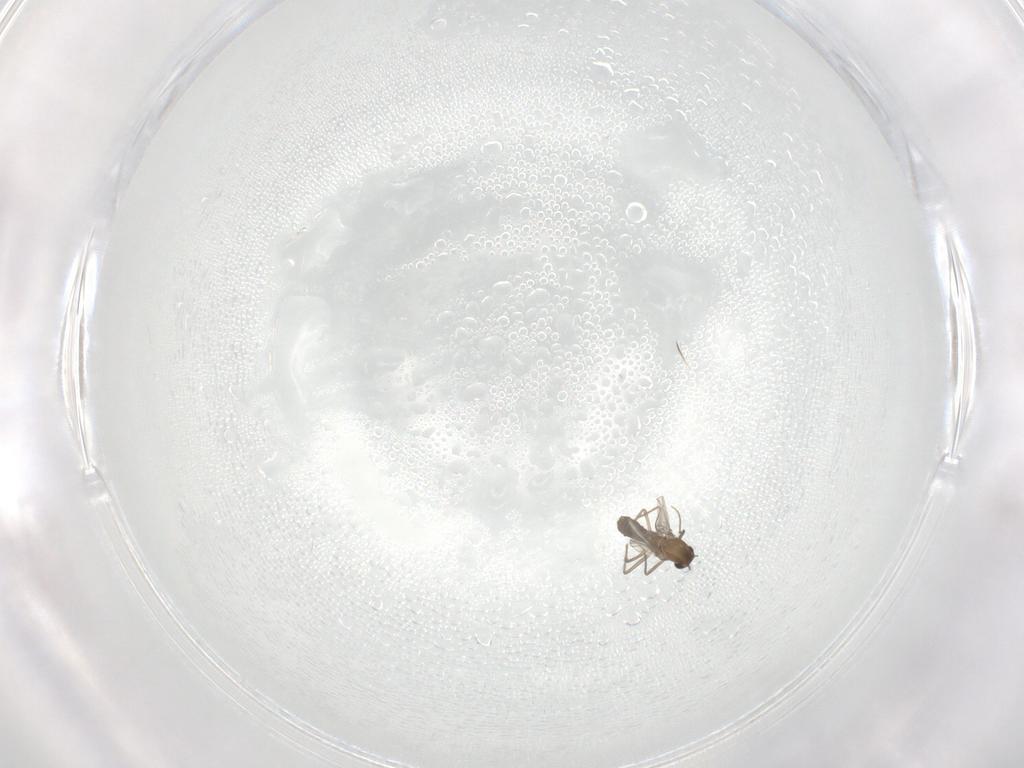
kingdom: Animalia
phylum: Arthropoda
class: Insecta
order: Diptera
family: Chironomidae
